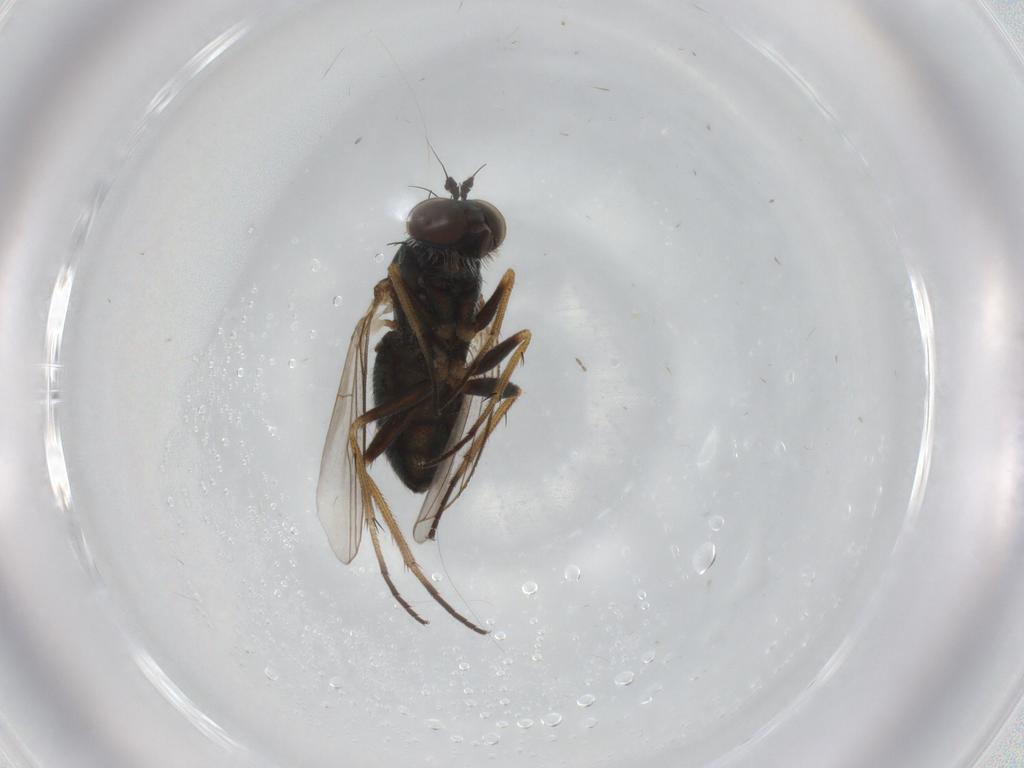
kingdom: Animalia
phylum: Arthropoda
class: Insecta
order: Diptera
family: Dolichopodidae
